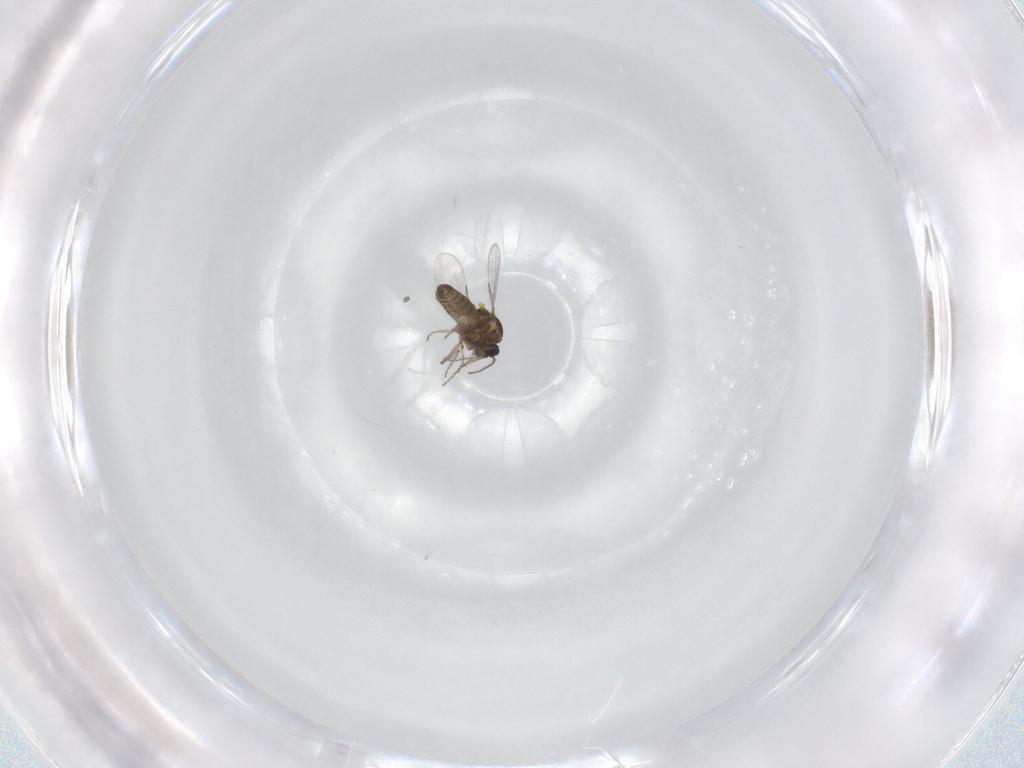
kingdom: Animalia
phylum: Arthropoda
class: Insecta
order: Diptera
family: Ceratopogonidae
